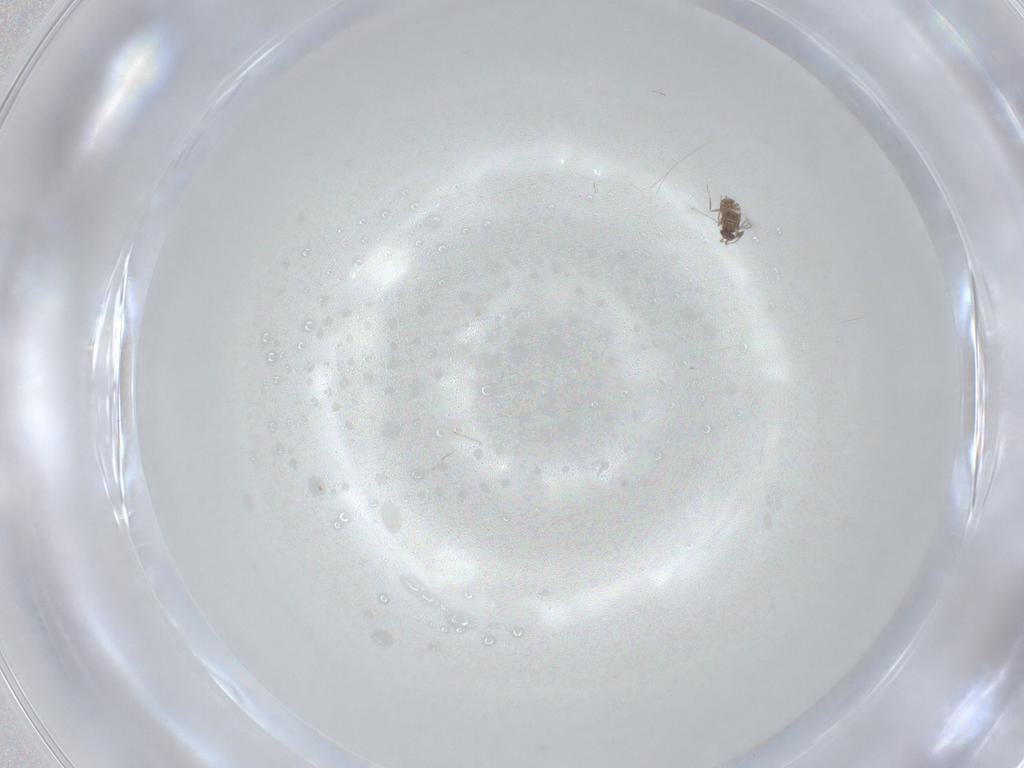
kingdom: Animalia
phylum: Arthropoda
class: Insecta
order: Hymenoptera
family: Mymaridae
